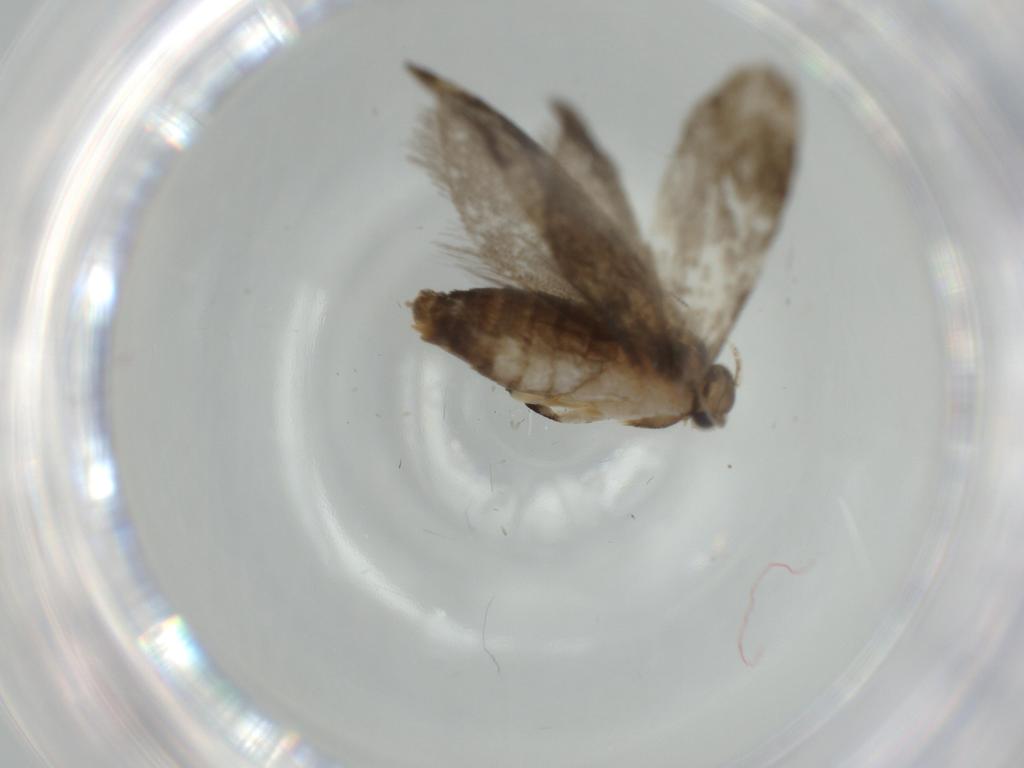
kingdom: Animalia
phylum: Arthropoda
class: Insecta
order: Lepidoptera
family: Tineidae
